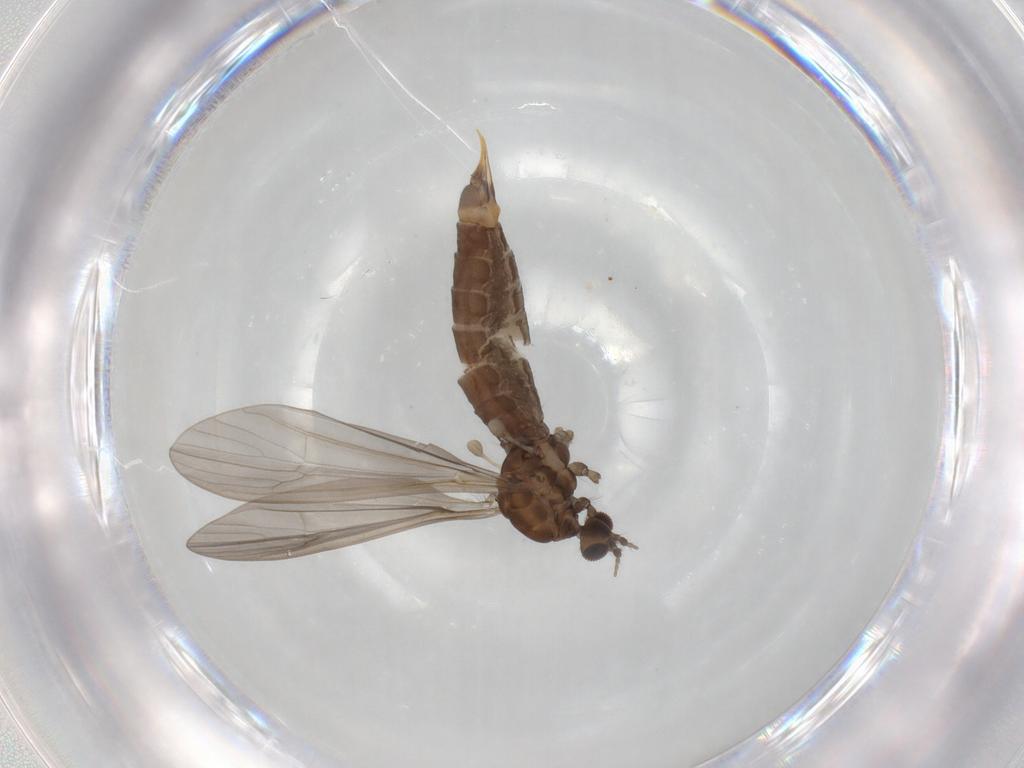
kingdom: Animalia
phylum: Arthropoda
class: Insecta
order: Diptera
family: Limoniidae
